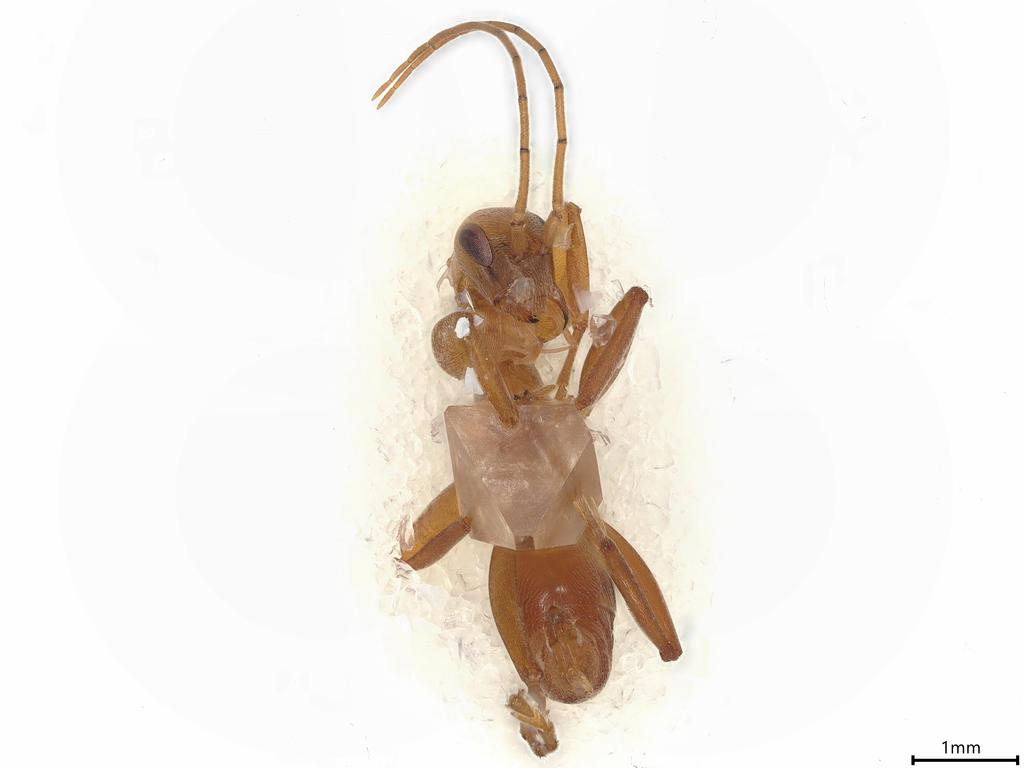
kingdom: Animalia
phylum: Arthropoda
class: Insecta
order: Hymenoptera
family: Rhopalosomatidae
